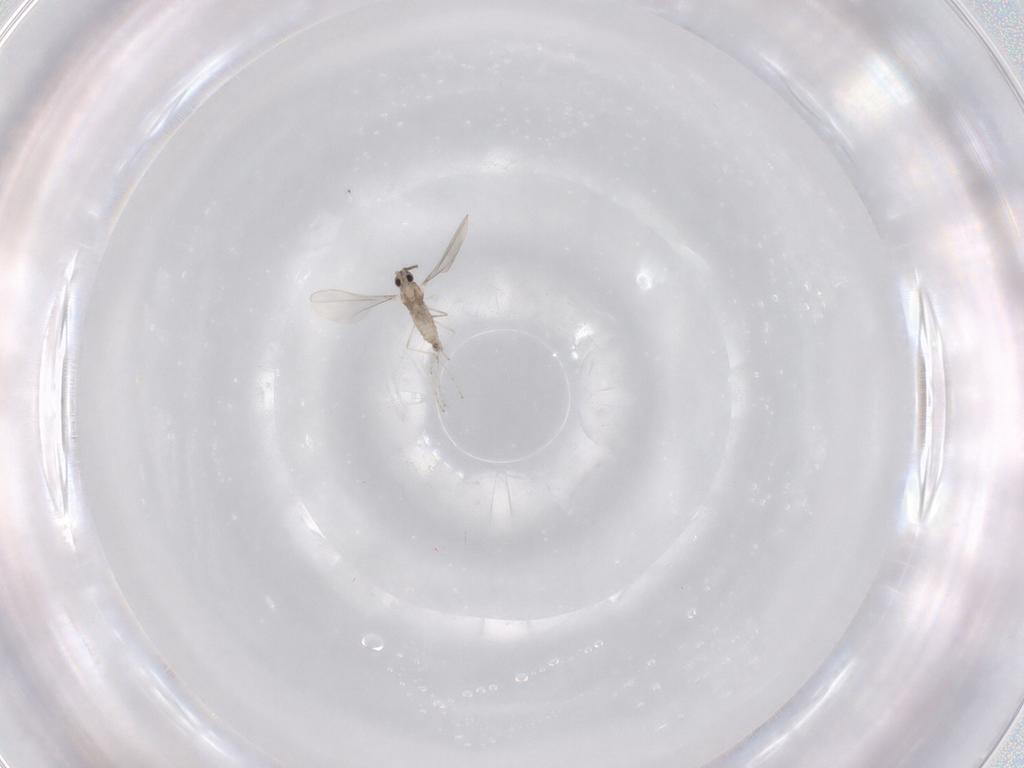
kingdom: Animalia
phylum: Arthropoda
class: Insecta
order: Diptera
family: Cecidomyiidae
